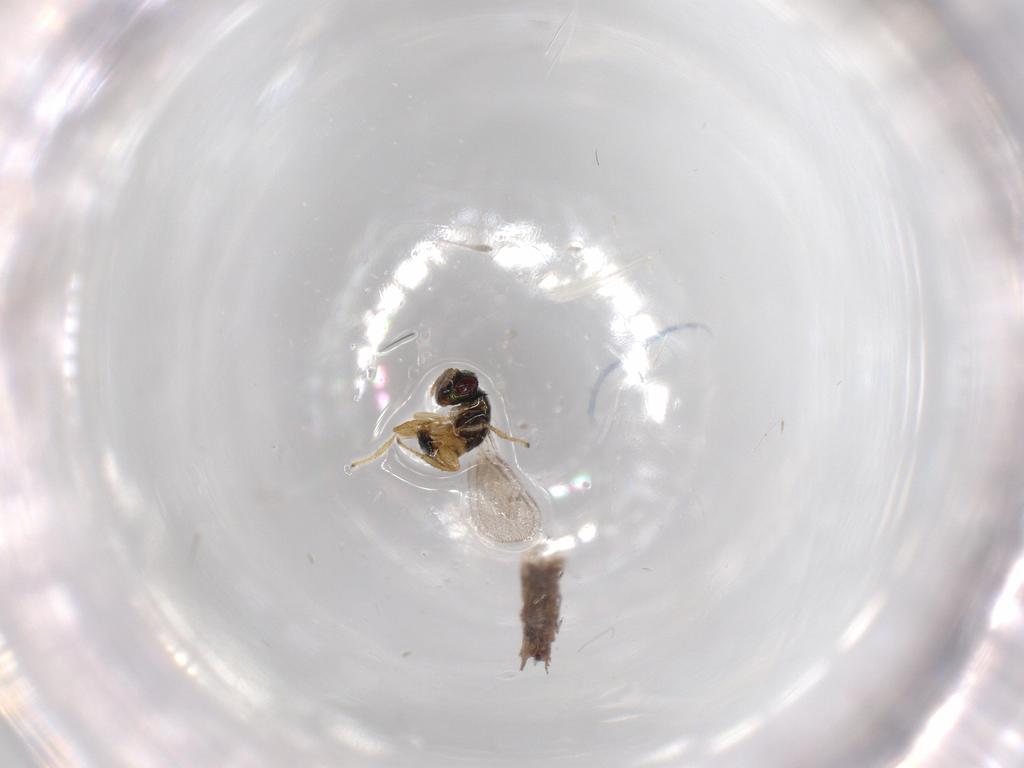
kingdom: Animalia
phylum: Arthropoda
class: Insecta
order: Hymenoptera
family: Torymidae
